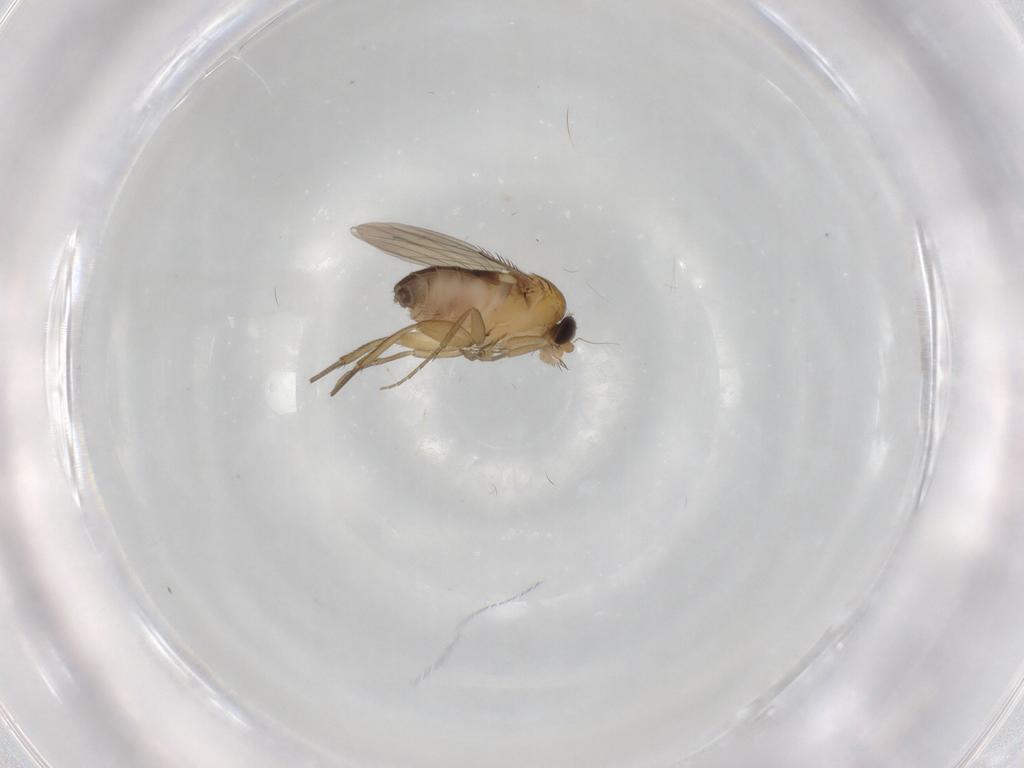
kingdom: Animalia
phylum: Arthropoda
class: Insecta
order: Diptera
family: Phoridae
